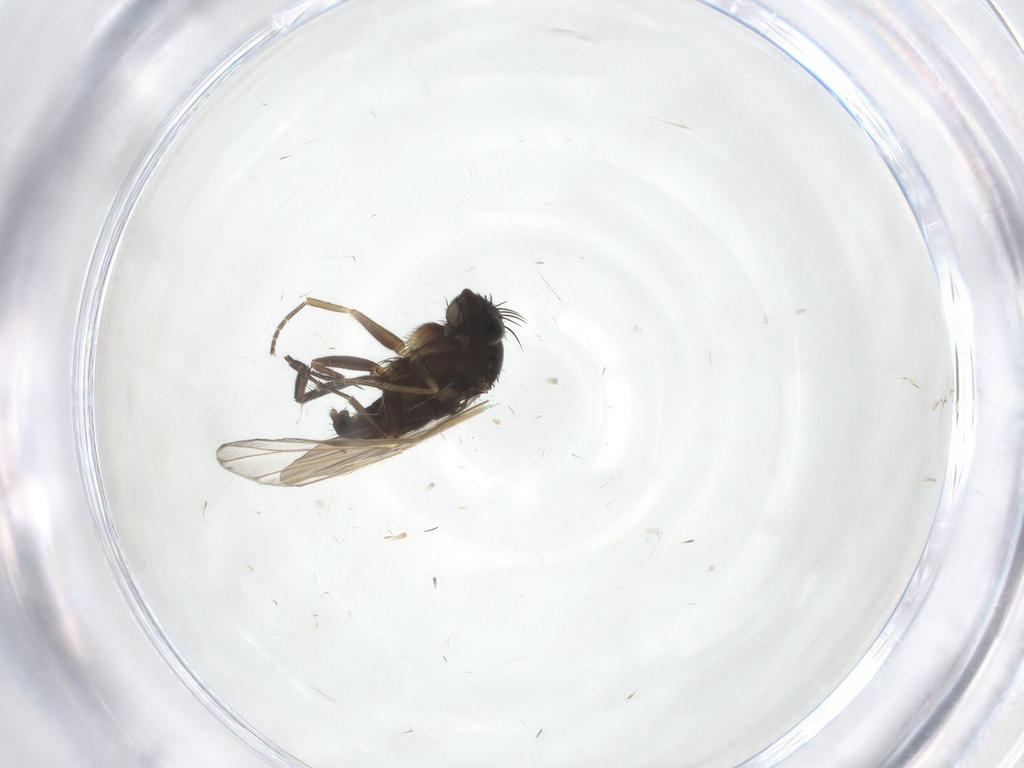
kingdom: Animalia
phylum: Arthropoda
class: Insecta
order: Diptera
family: Phoridae
